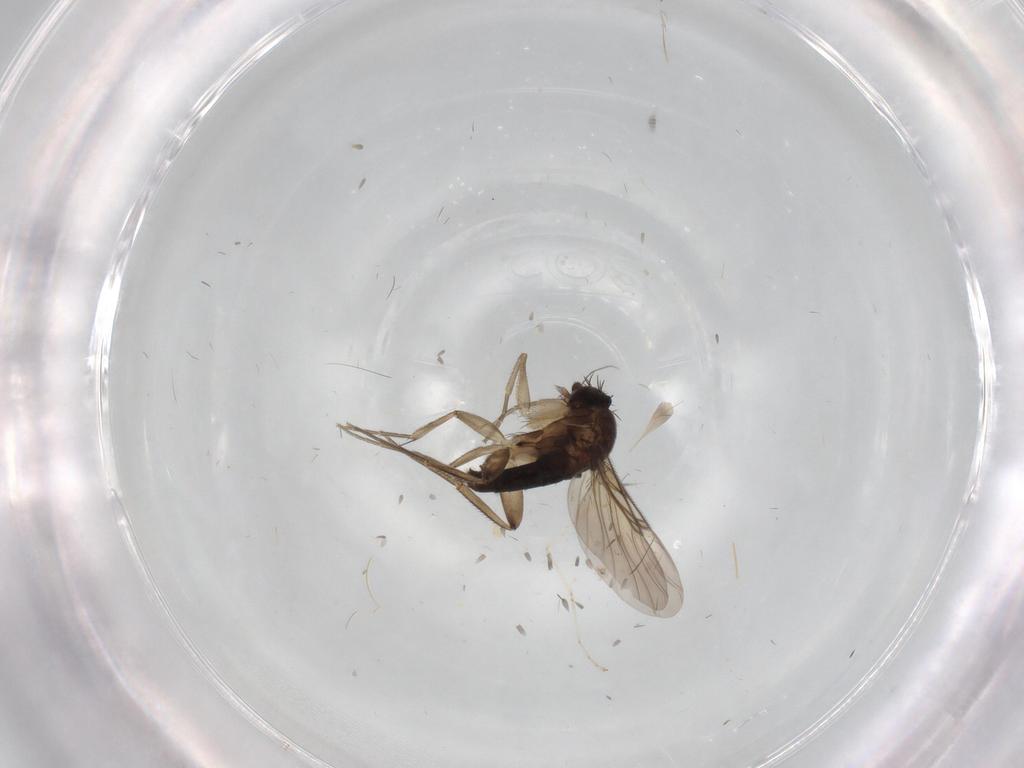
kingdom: Animalia
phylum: Arthropoda
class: Insecta
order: Diptera
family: Phoridae
